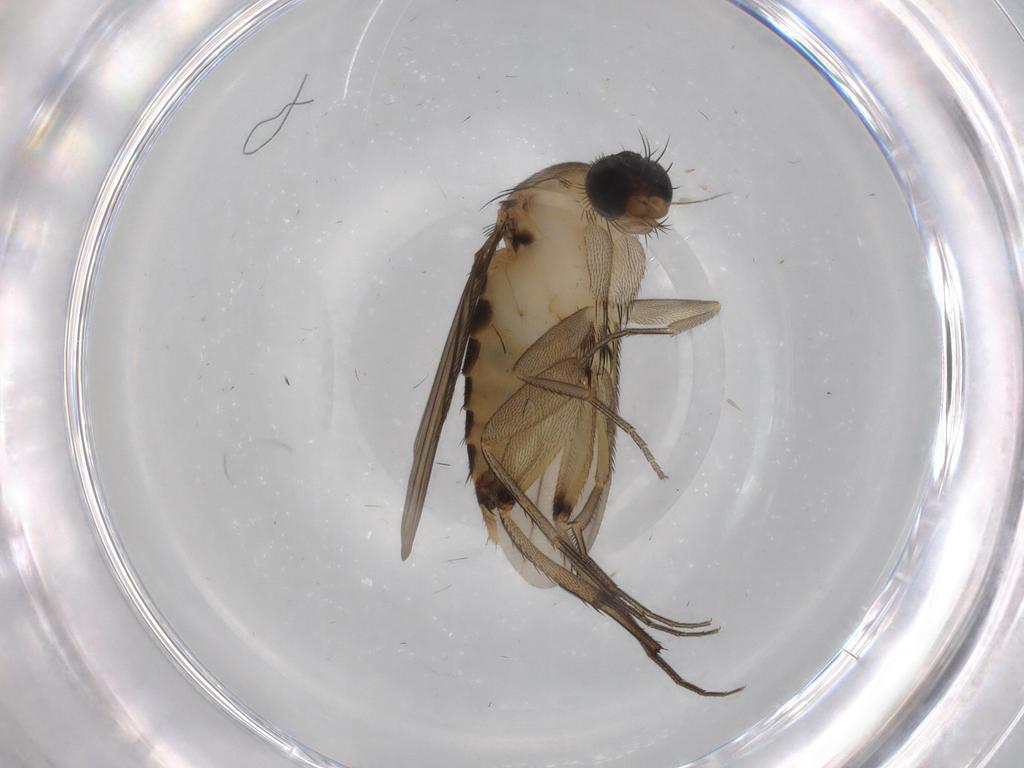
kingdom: Animalia
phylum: Arthropoda
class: Insecta
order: Diptera
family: Phoridae
